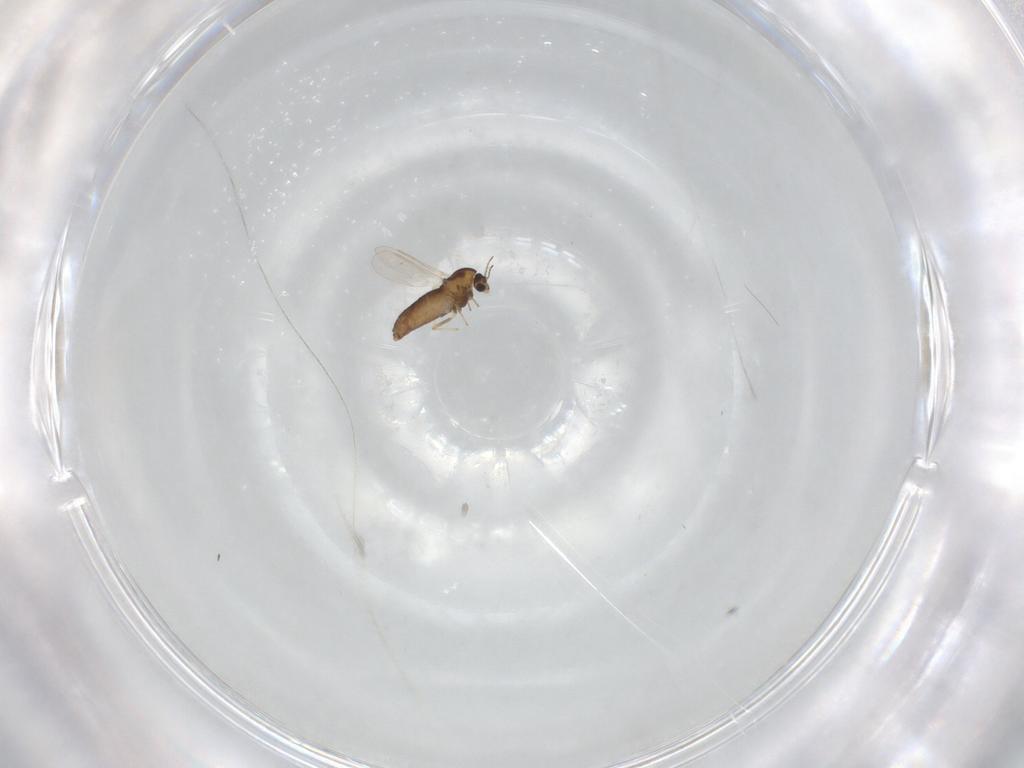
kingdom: Animalia
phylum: Arthropoda
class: Insecta
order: Diptera
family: Chironomidae
